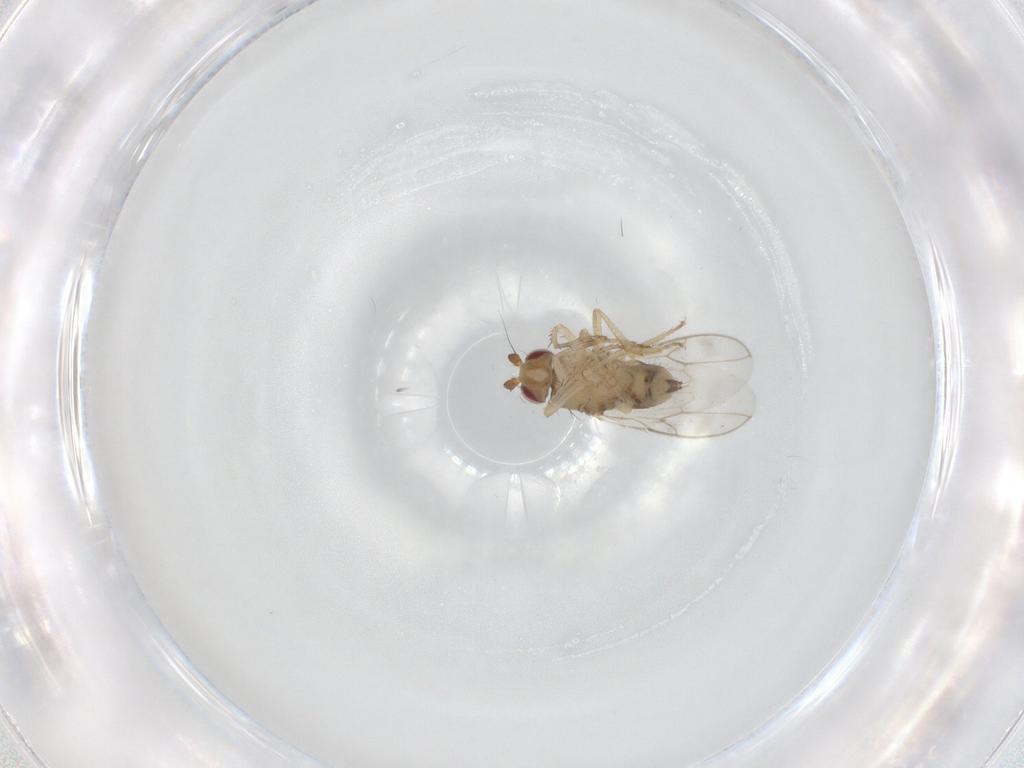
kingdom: Animalia
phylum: Arthropoda
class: Insecta
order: Diptera
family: Sphaeroceridae
